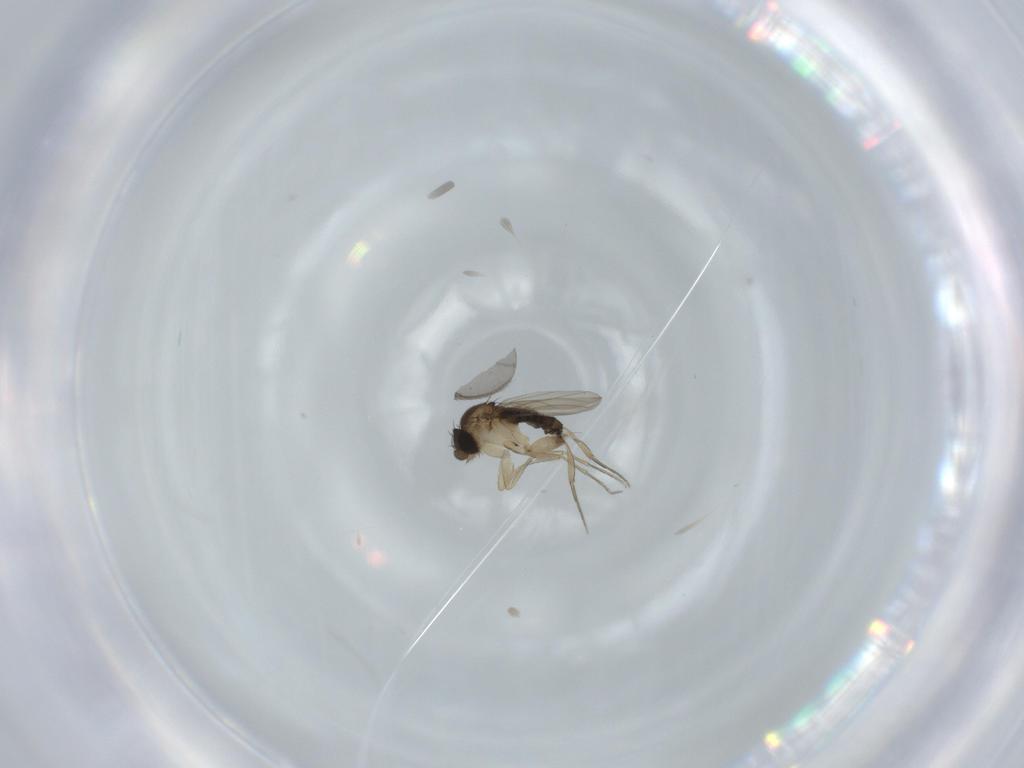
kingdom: Animalia
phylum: Arthropoda
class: Insecta
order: Diptera
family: Phoridae
